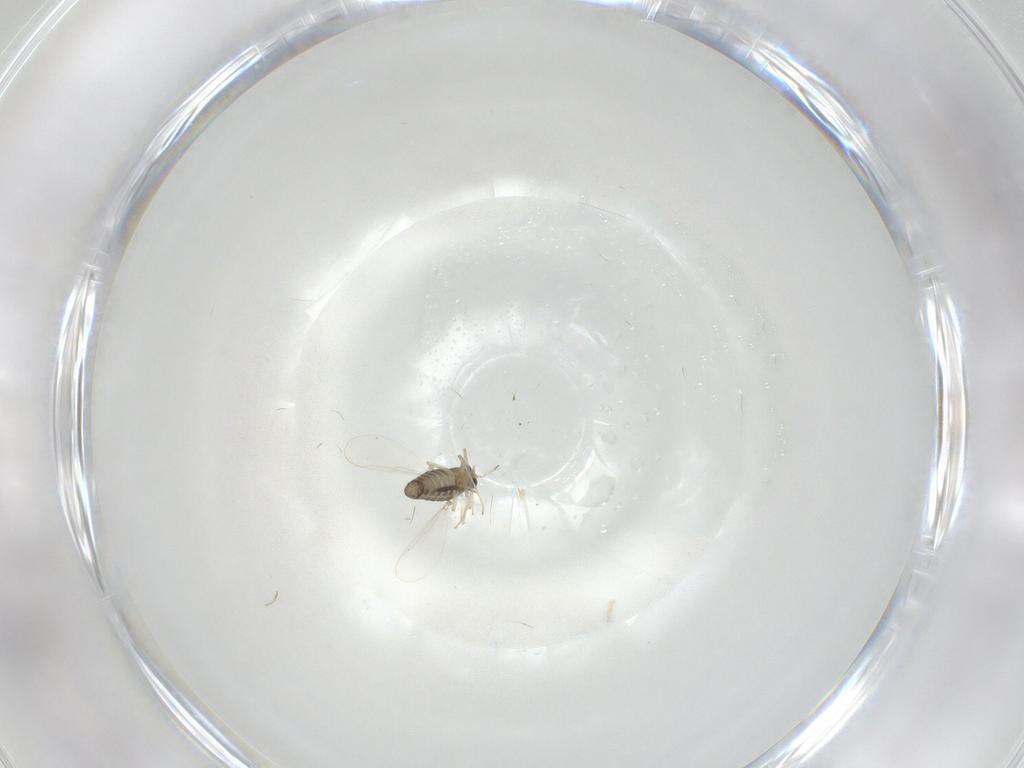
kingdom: Animalia
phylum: Arthropoda
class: Insecta
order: Diptera
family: Chironomidae
